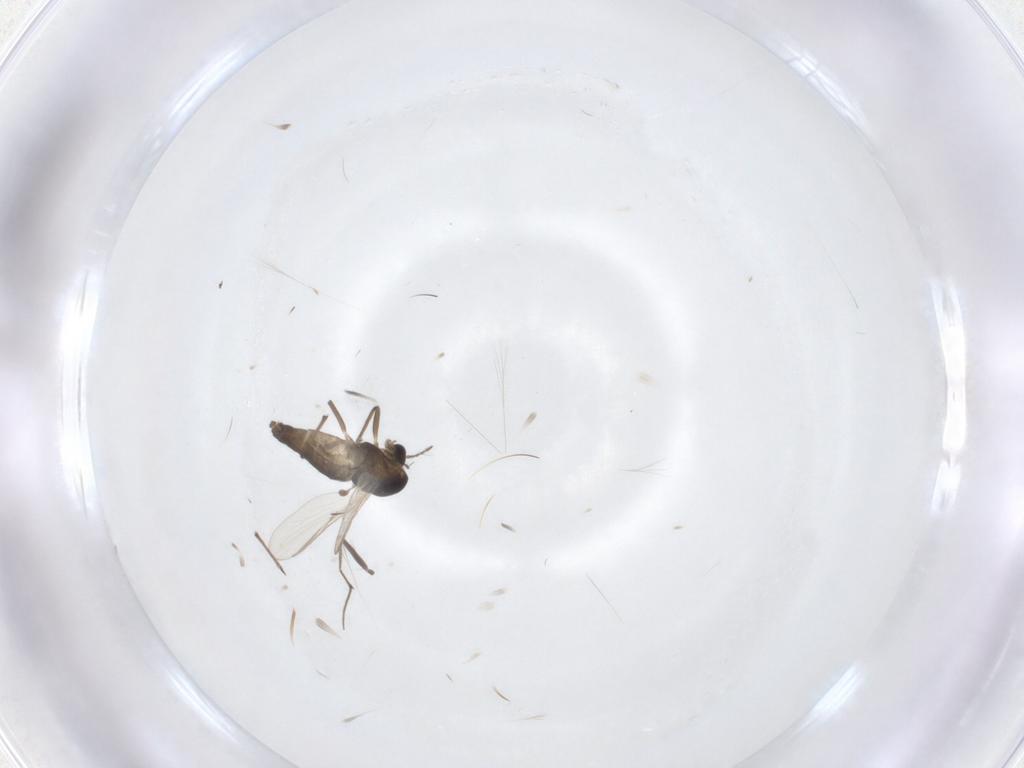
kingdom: Animalia
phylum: Arthropoda
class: Insecta
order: Diptera
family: Chironomidae
